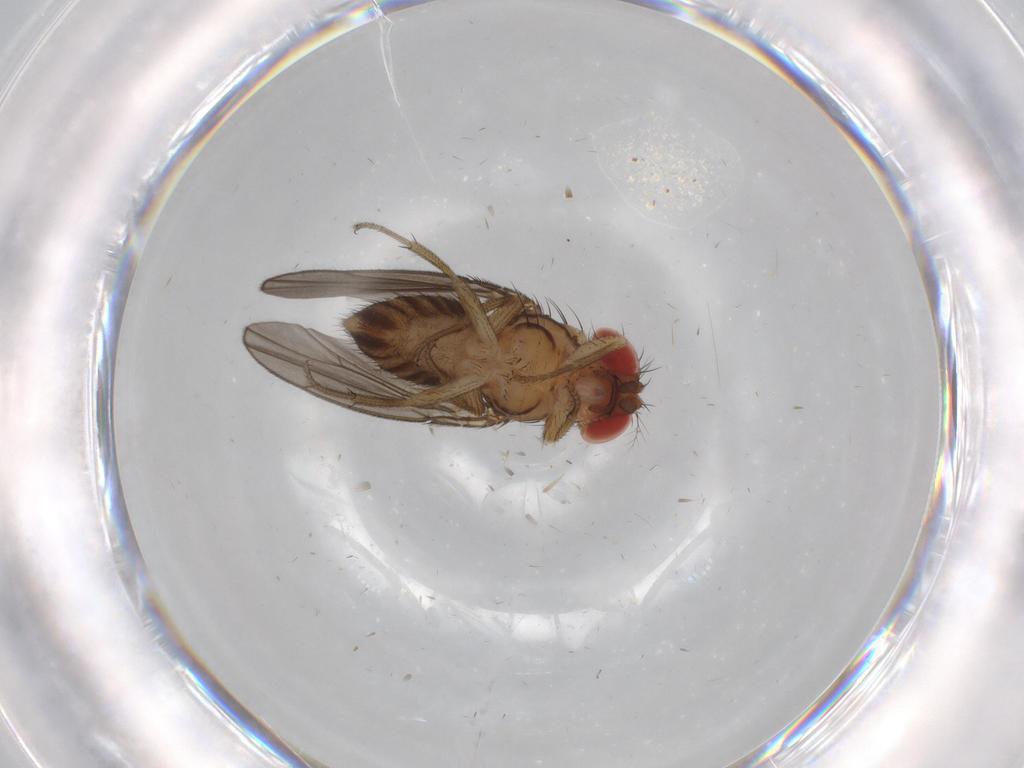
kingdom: Animalia
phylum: Arthropoda
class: Insecta
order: Diptera
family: Drosophilidae
